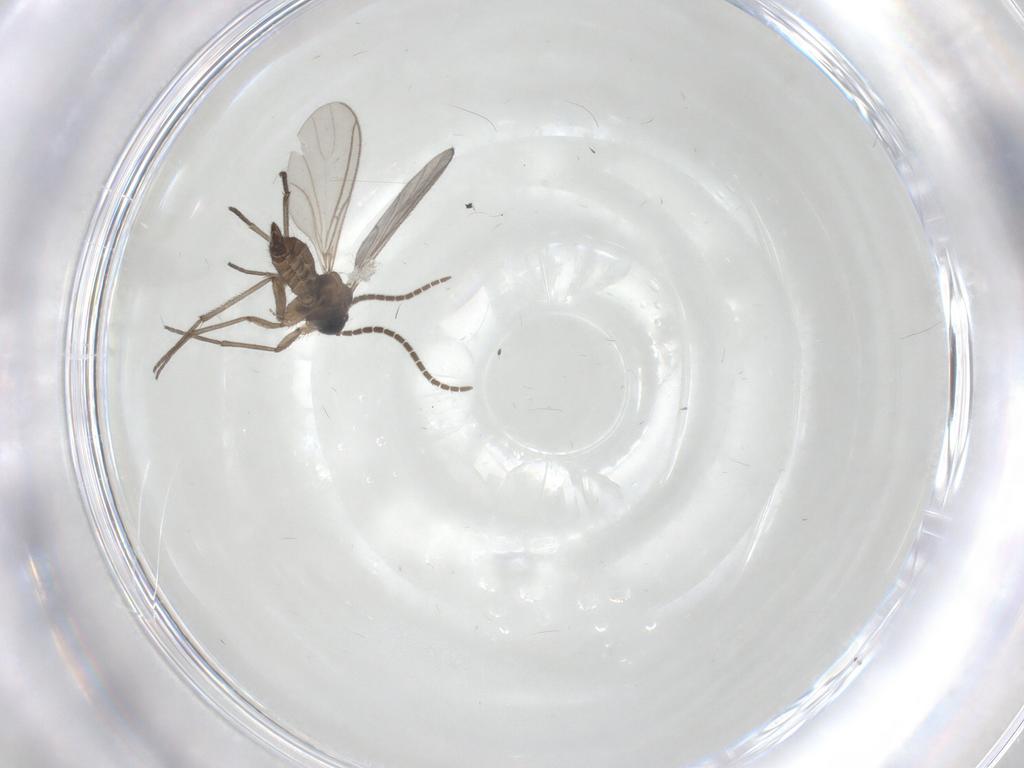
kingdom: Animalia
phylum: Arthropoda
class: Insecta
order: Diptera
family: Sciaridae
